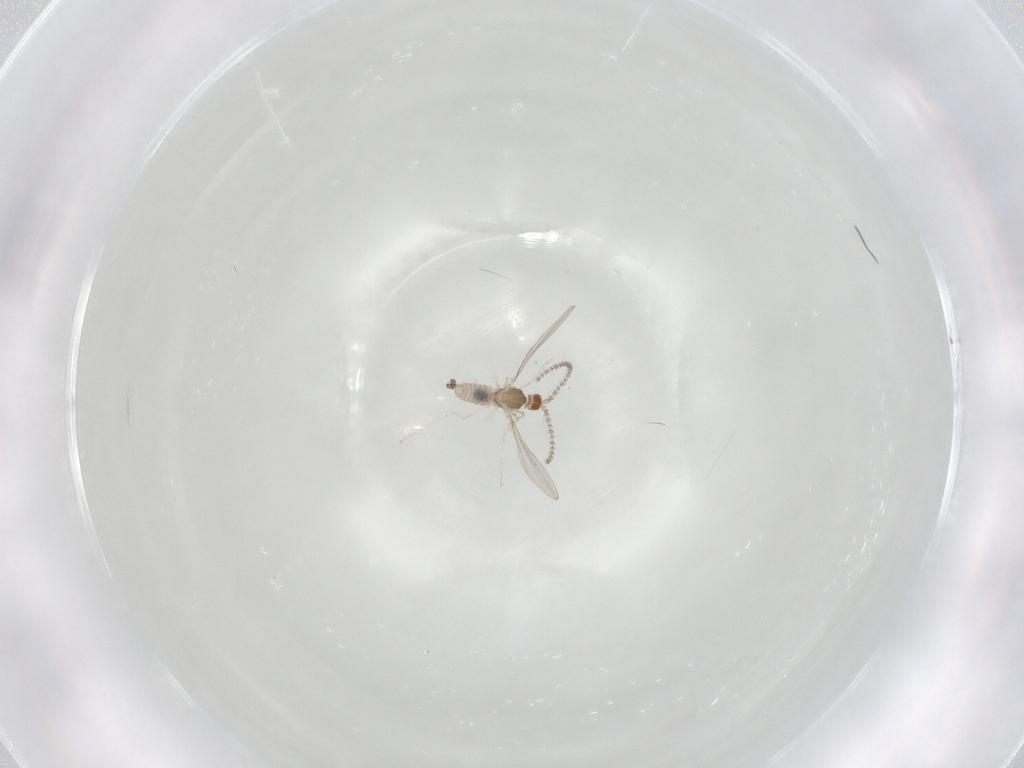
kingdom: Animalia
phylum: Arthropoda
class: Insecta
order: Diptera
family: Cecidomyiidae
